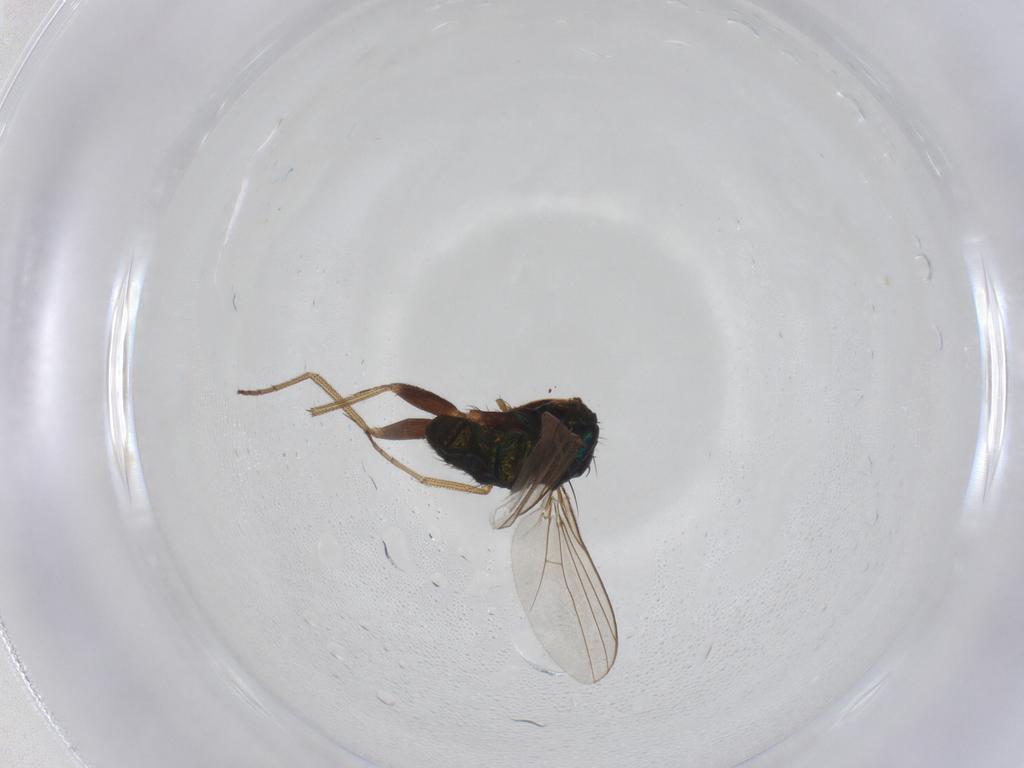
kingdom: Animalia
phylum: Arthropoda
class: Insecta
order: Diptera
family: Dolichopodidae
